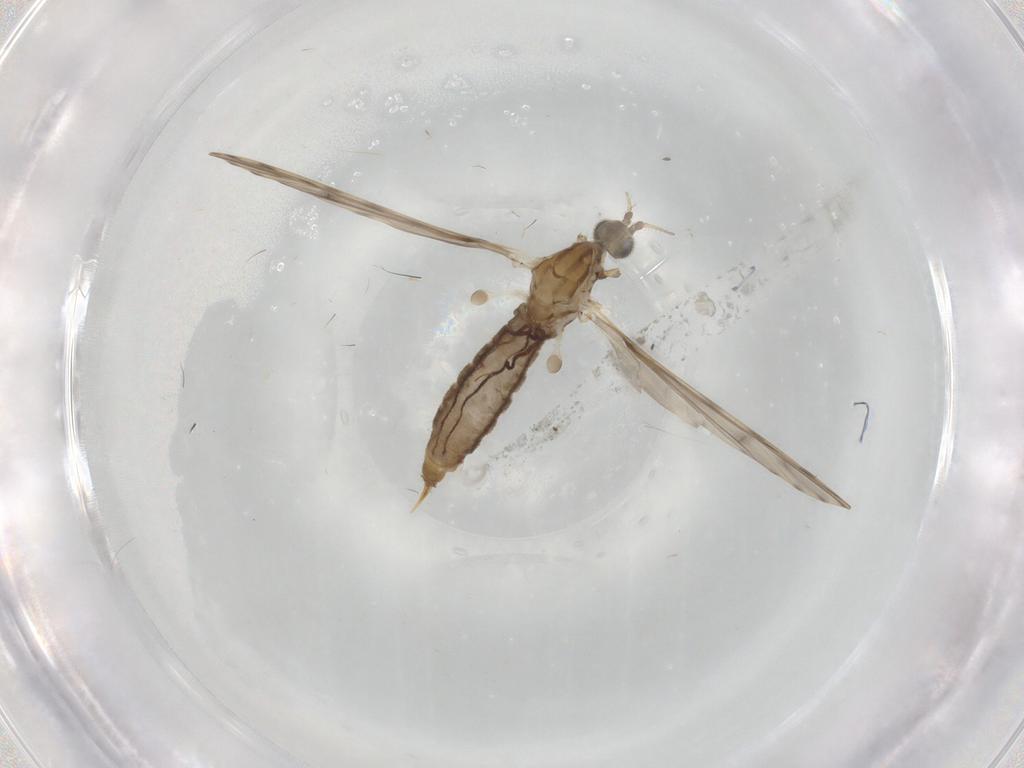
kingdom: Animalia
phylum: Arthropoda
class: Insecta
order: Diptera
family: Limoniidae
